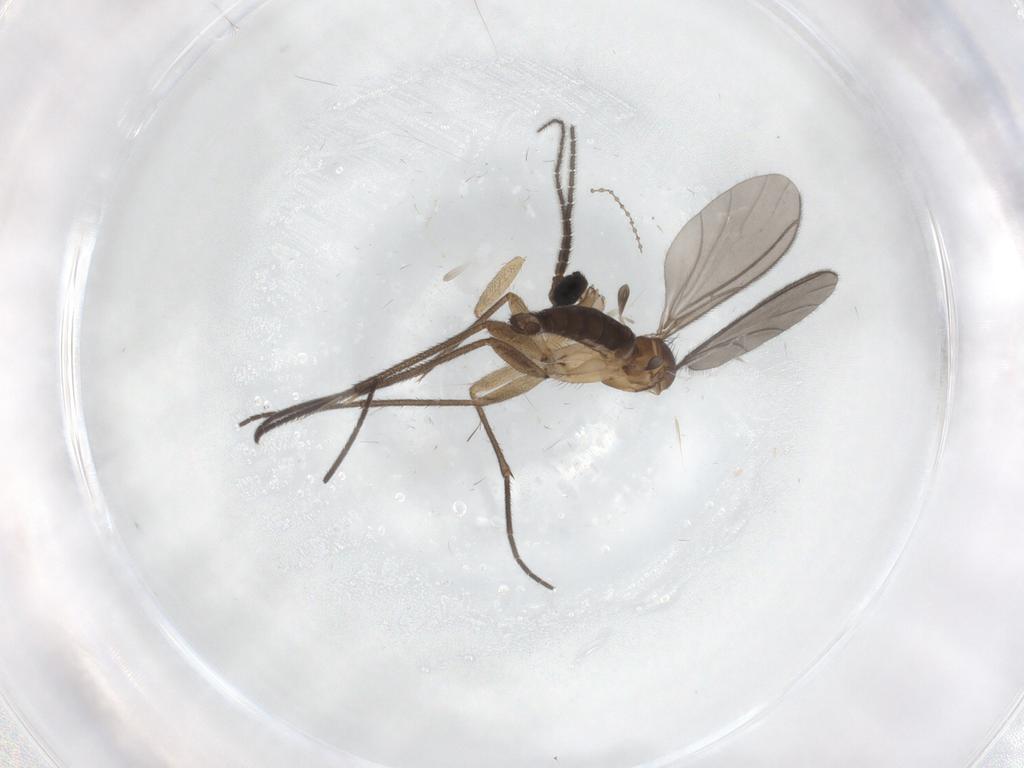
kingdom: Animalia
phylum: Arthropoda
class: Insecta
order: Diptera
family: Sciaridae
